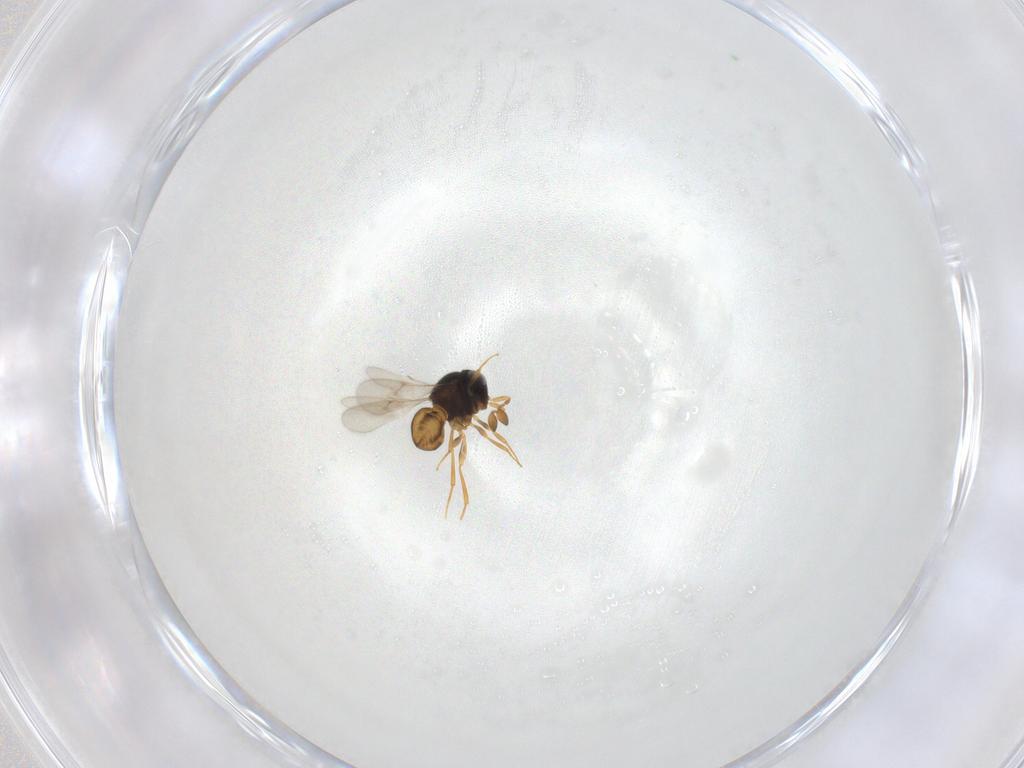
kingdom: Animalia
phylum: Arthropoda
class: Insecta
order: Hymenoptera
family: Scelionidae
